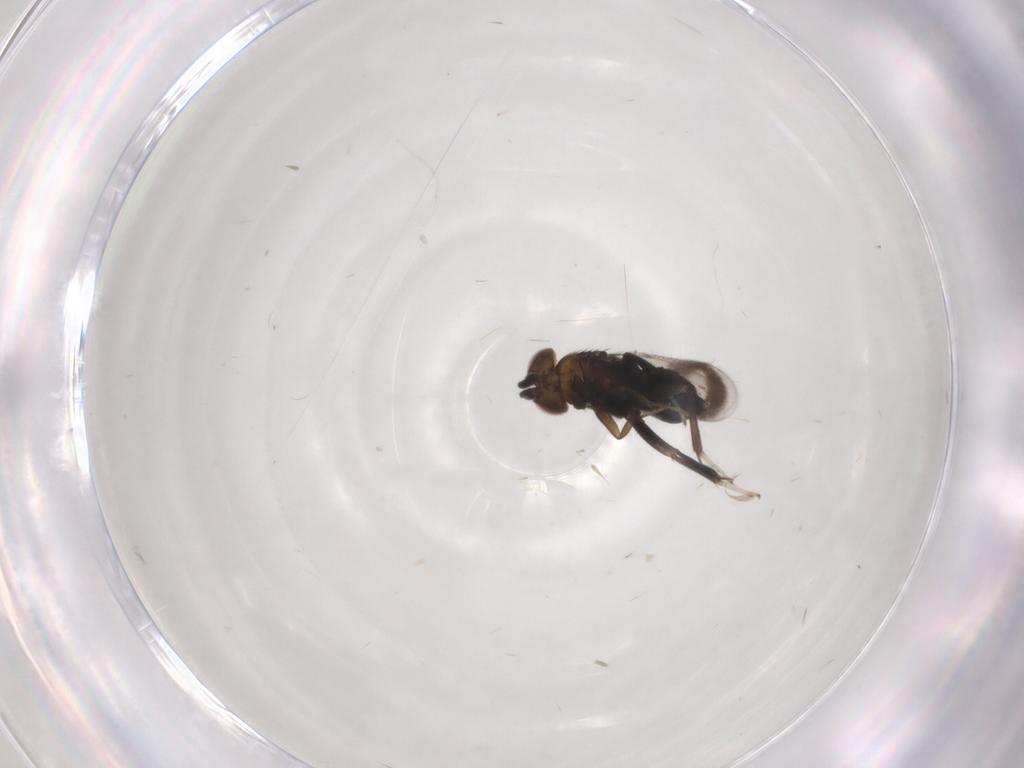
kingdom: Animalia
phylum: Arthropoda
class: Insecta
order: Hymenoptera
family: Aphelinidae
